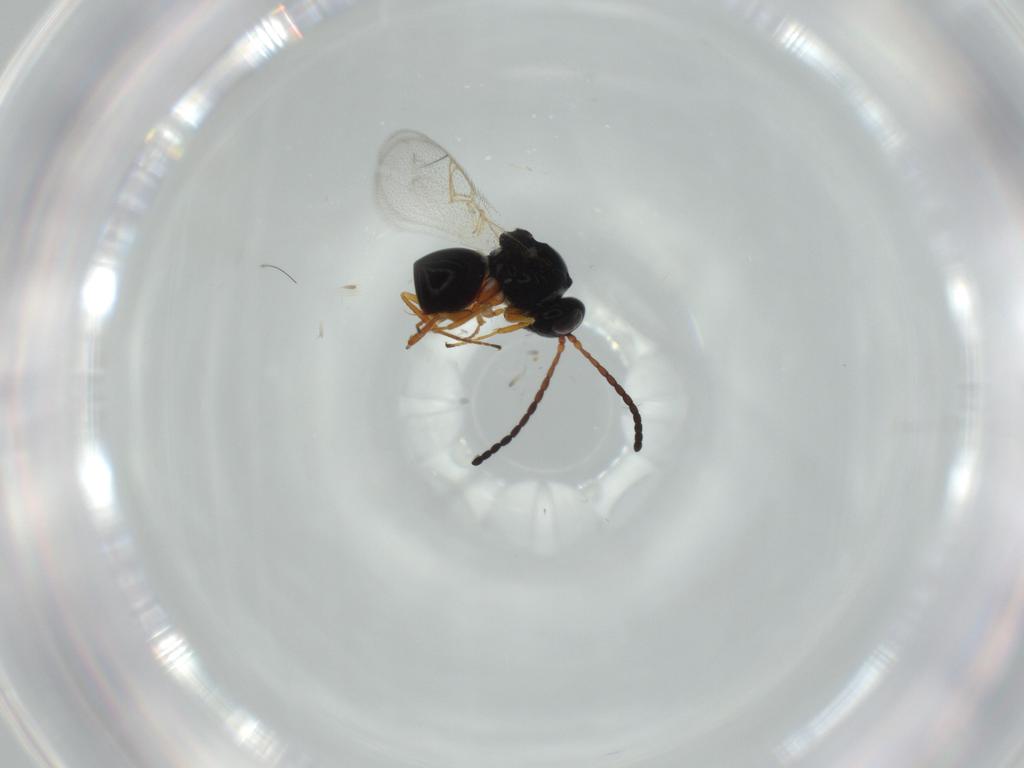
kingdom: Animalia
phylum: Arthropoda
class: Insecta
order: Hymenoptera
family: Figitidae
